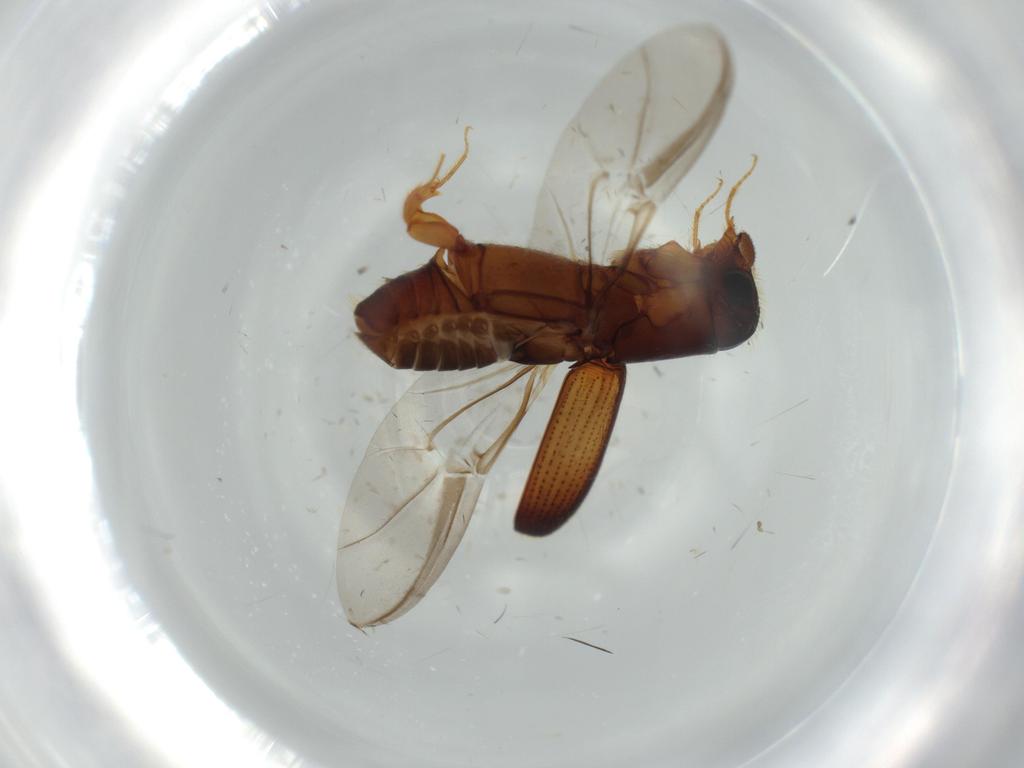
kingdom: Animalia
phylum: Arthropoda
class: Insecta
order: Coleoptera
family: Curculionidae
